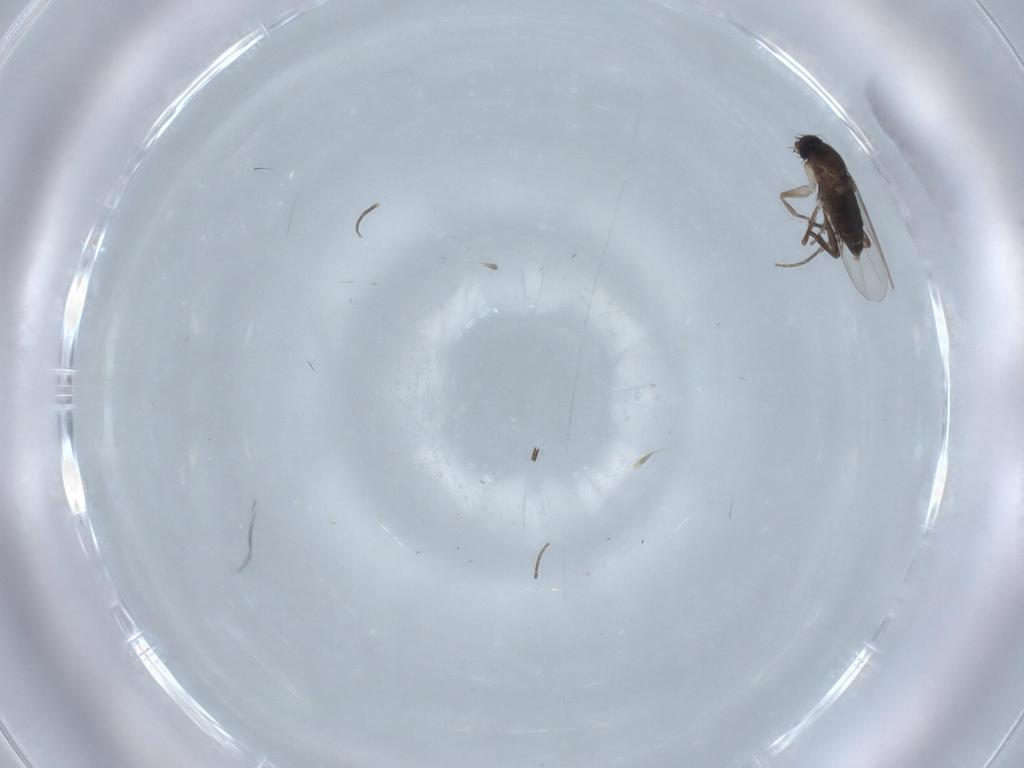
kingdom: Animalia
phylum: Arthropoda
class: Insecta
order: Diptera
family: Phoridae
